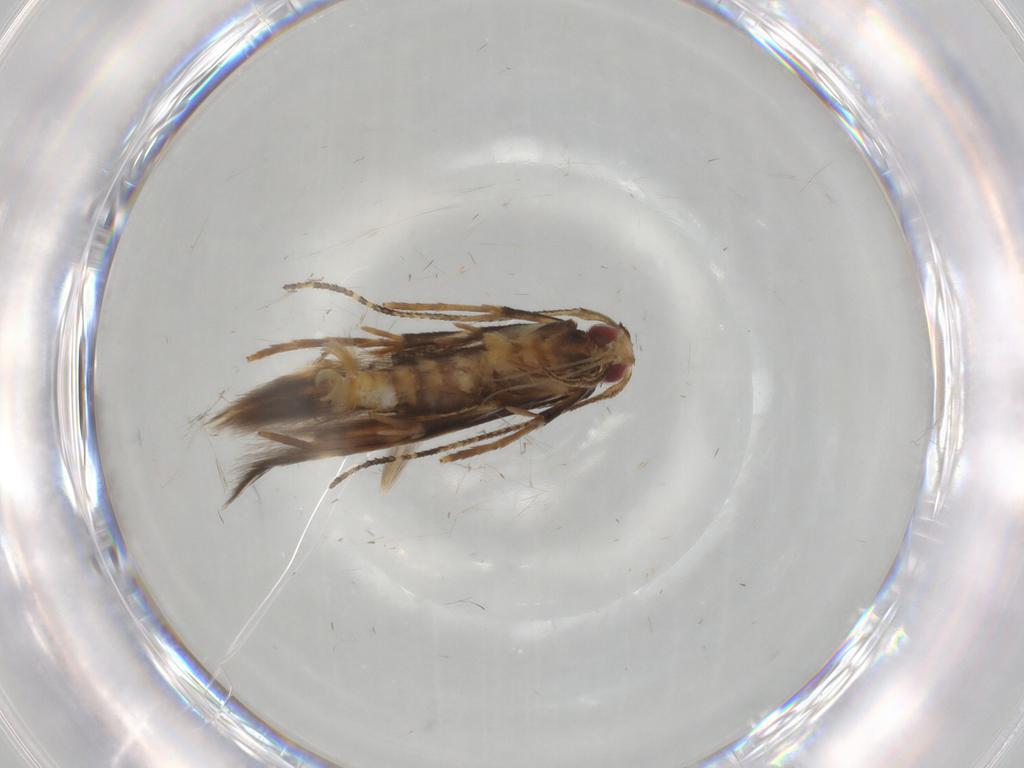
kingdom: Animalia
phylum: Arthropoda
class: Insecta
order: Lepidoptera
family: Cosmopterigidae
